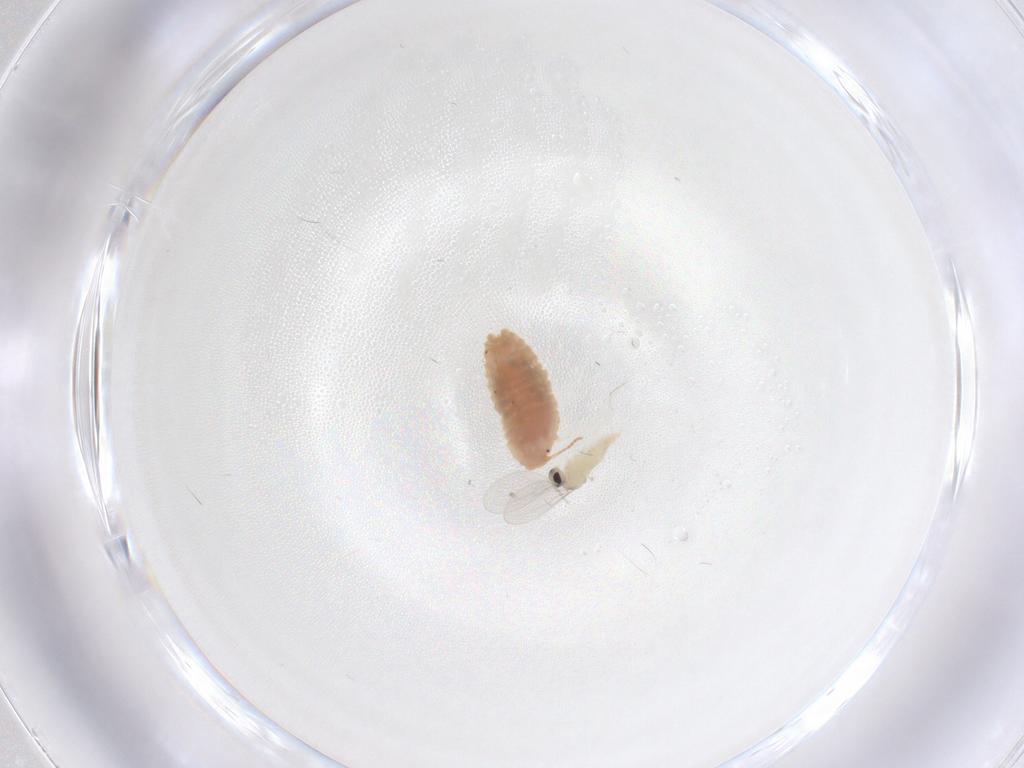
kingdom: Animalia
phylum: Arthropoda
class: Insecta
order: Diptera
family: Cecidomyiidae
